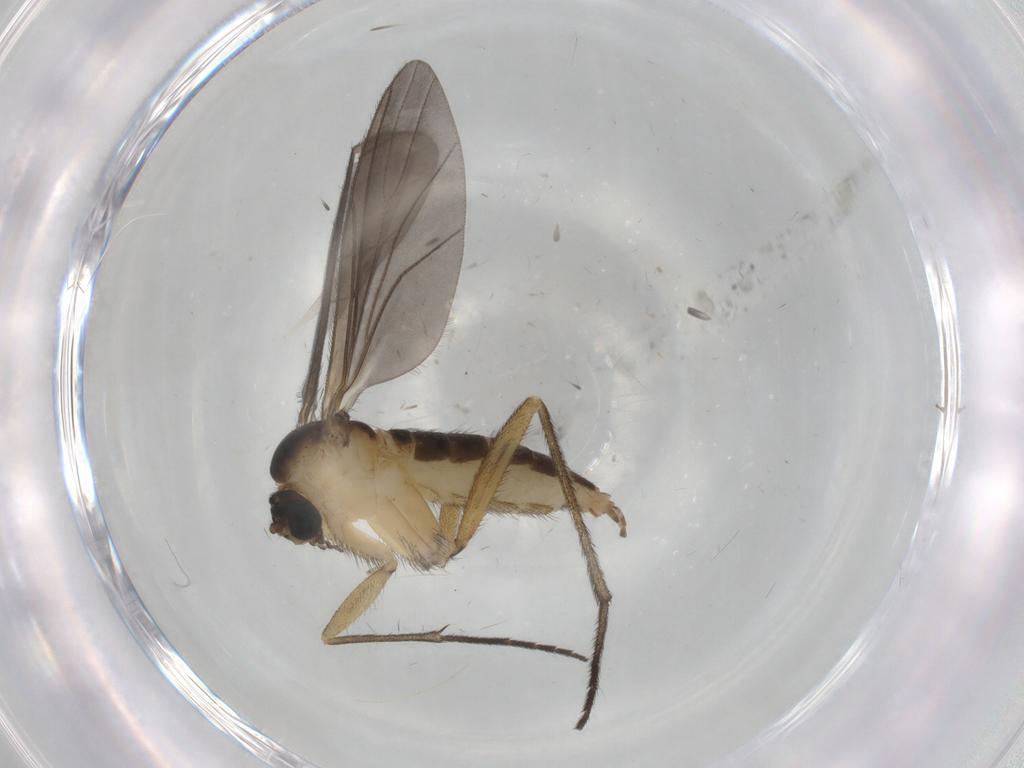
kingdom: Animalia
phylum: Arthropoda
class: Insecta
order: Diptera
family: Sciaridae
